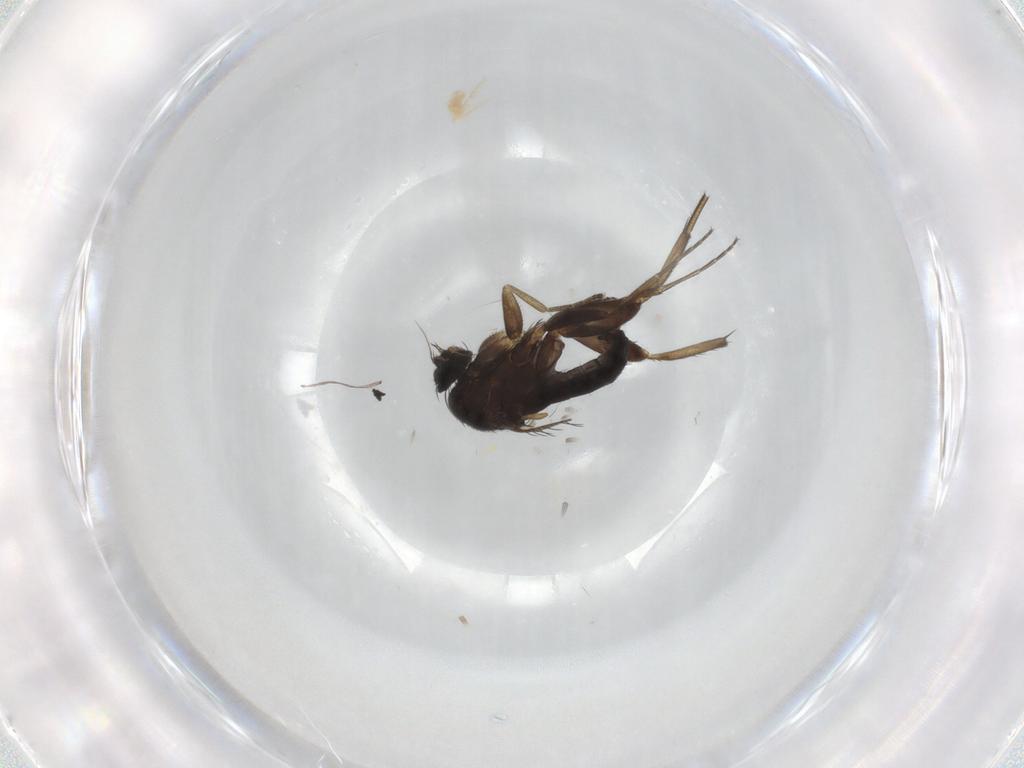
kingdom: Animalia
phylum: Arthropoda
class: Insecta
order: Diptera
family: Phoridae
